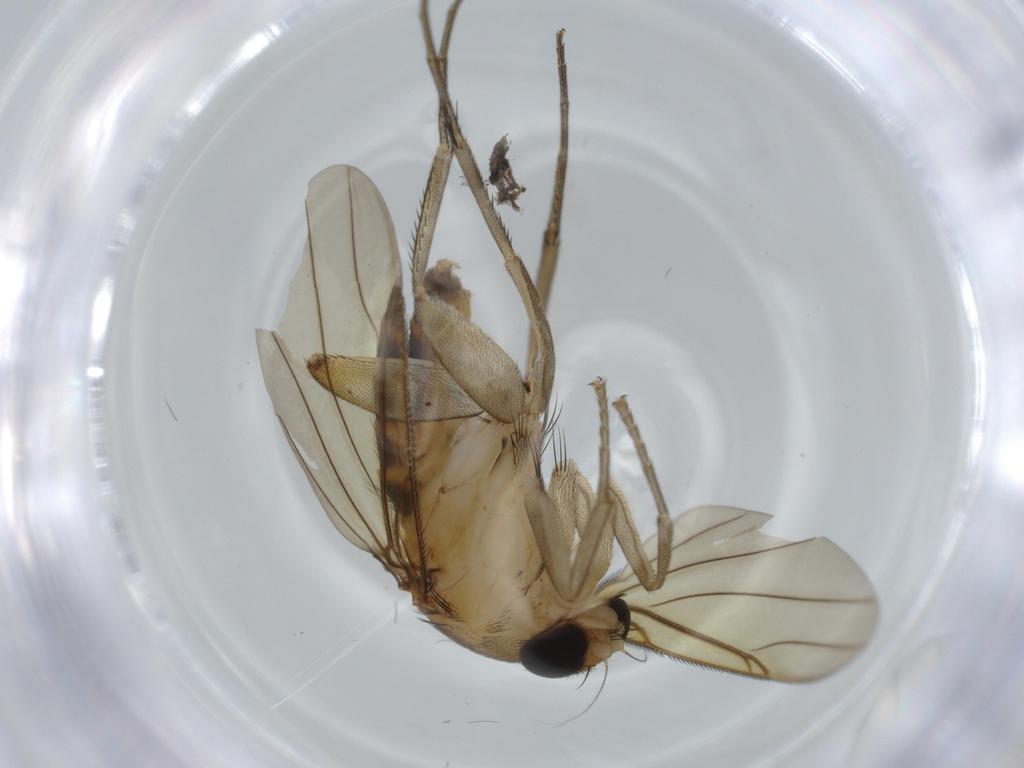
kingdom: Animalia
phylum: Arthropoda
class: Insecta
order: Diptera
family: Phoridae
